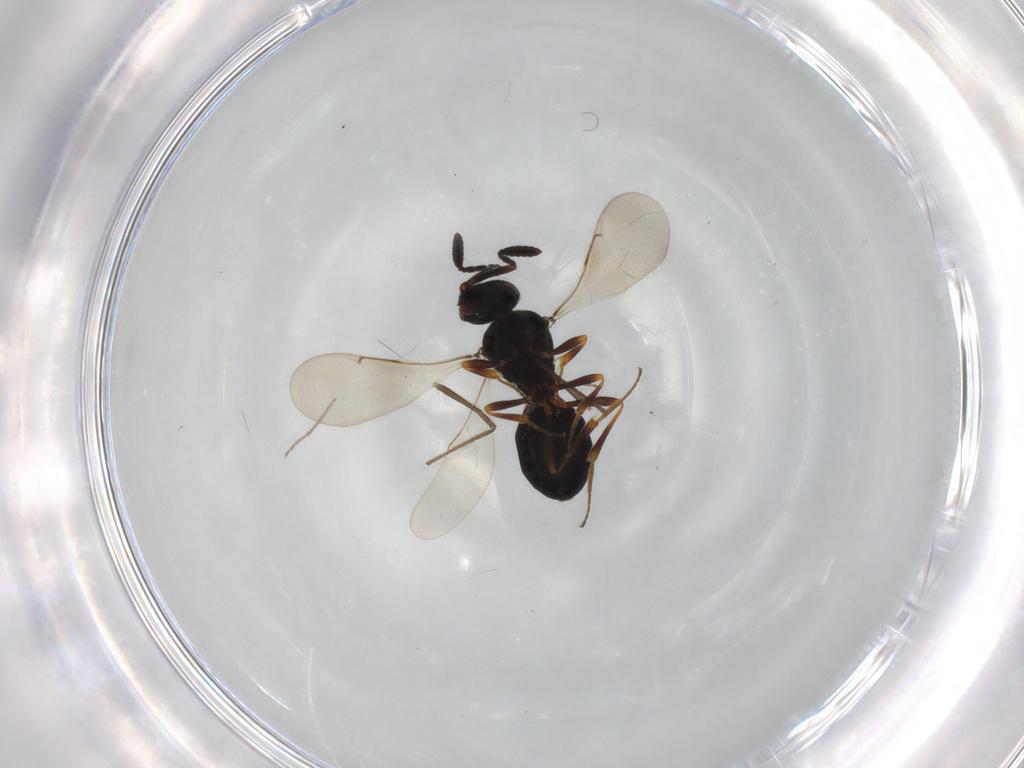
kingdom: Animalia
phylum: Arthropoda
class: Insecta
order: Hymenoptera
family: Scelionidae
